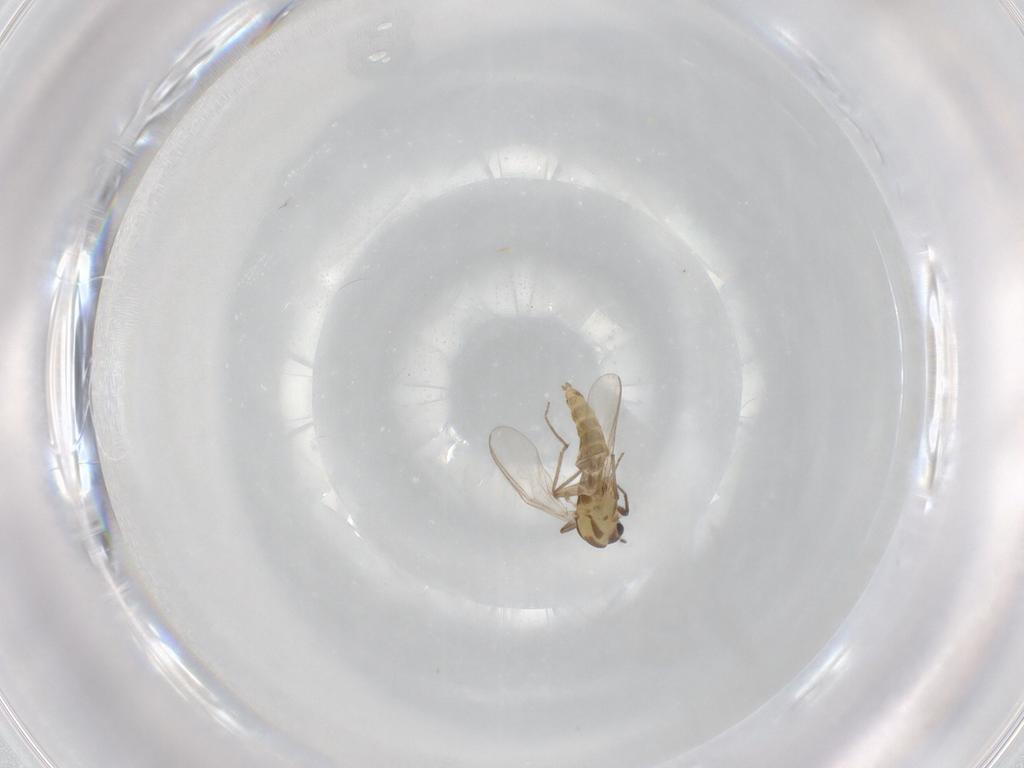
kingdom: Animalia
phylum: Arthropoda
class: Insecta
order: Diptera
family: Chironomidae
